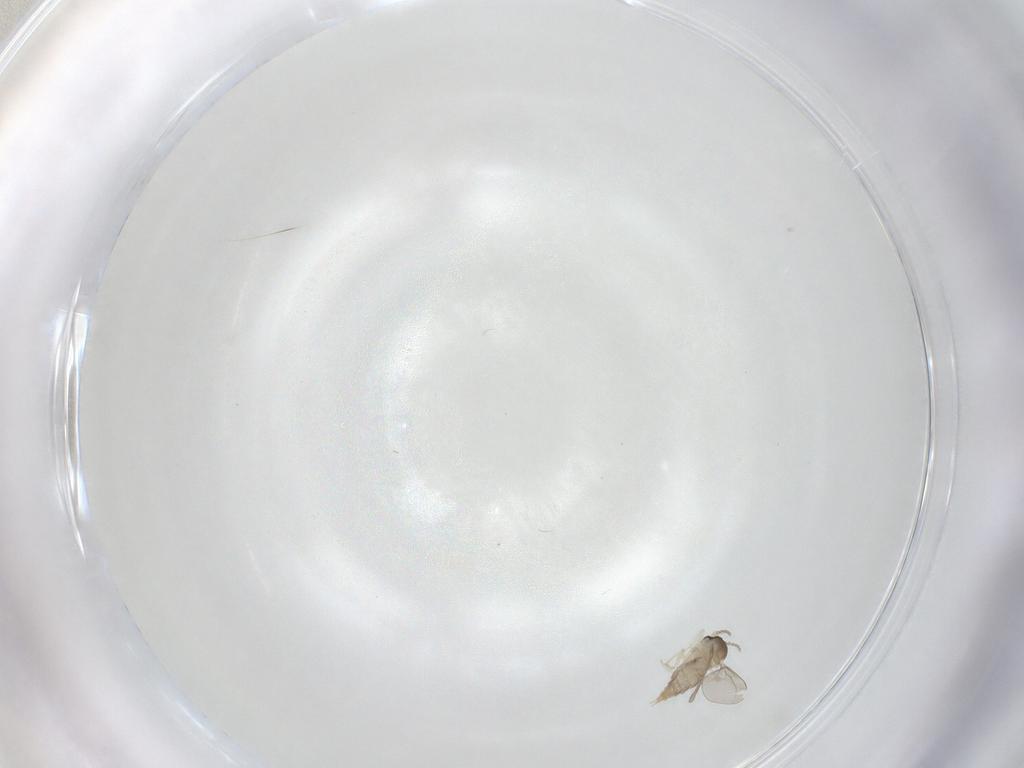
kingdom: Animalia
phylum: Arthropoda
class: Insecta
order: Diptera
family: Cecidomyiidae
